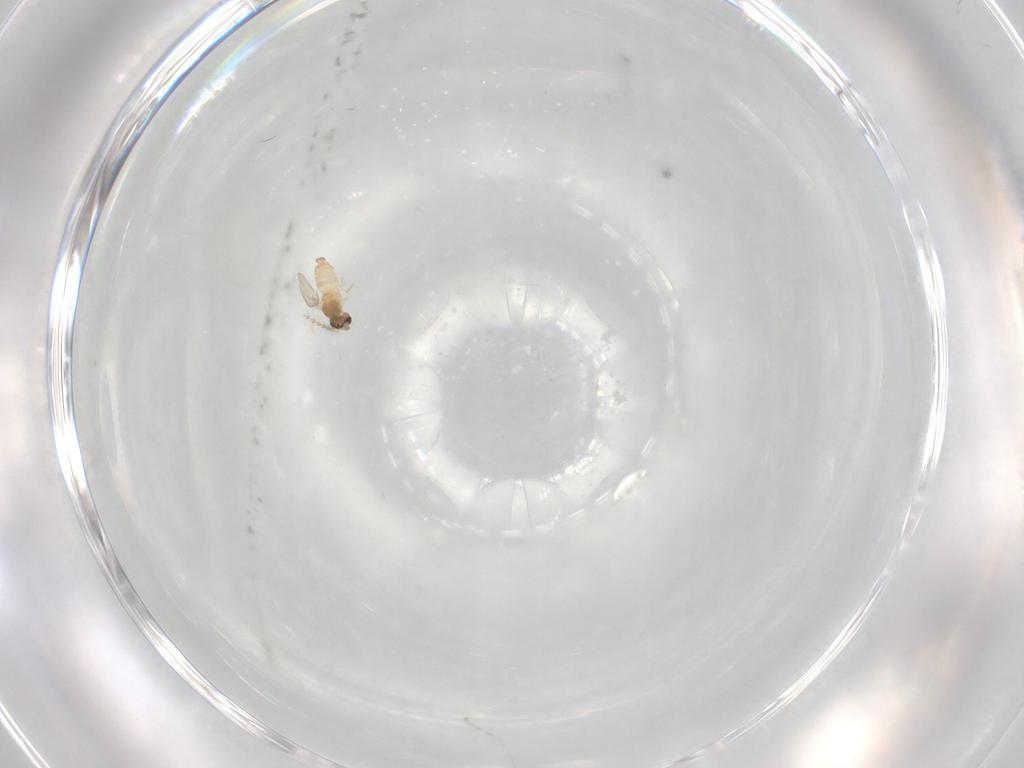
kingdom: Animalia
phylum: Arthropoda
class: Insecta
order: Diptera
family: Cecidomyiidae
